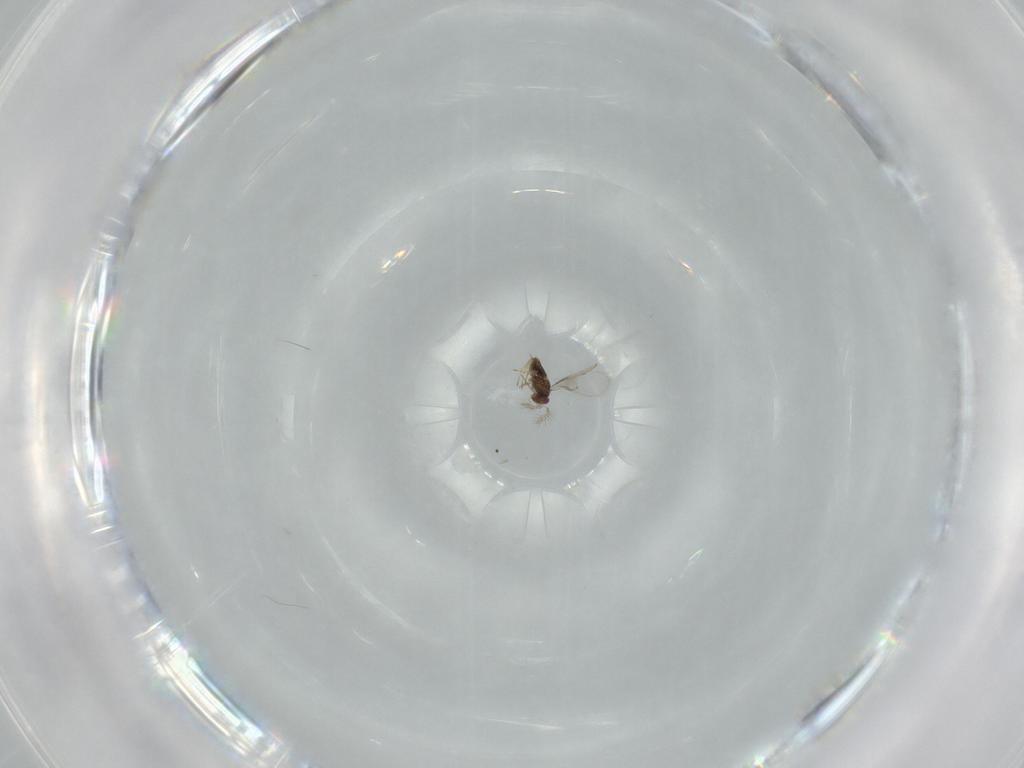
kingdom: Animalia
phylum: Arthropoda
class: Insecta
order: Hymenoptera
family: Braconidae
